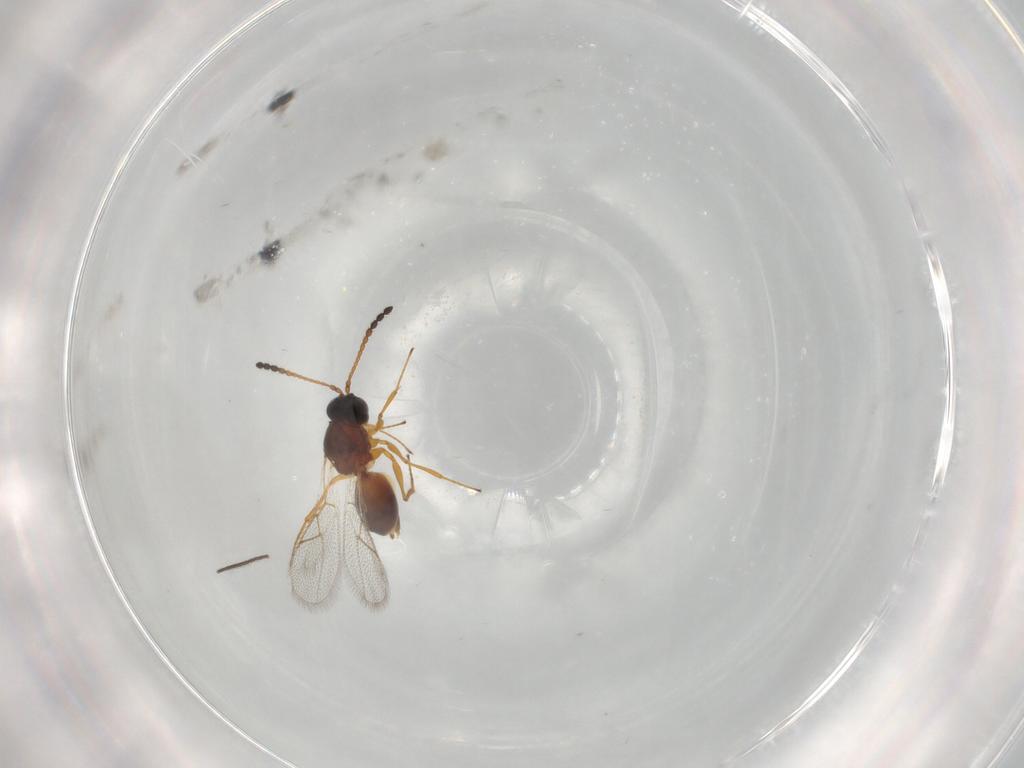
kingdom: Animalia
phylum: Arthropoda
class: Insecta
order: Hymenoptera
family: Figitidae
